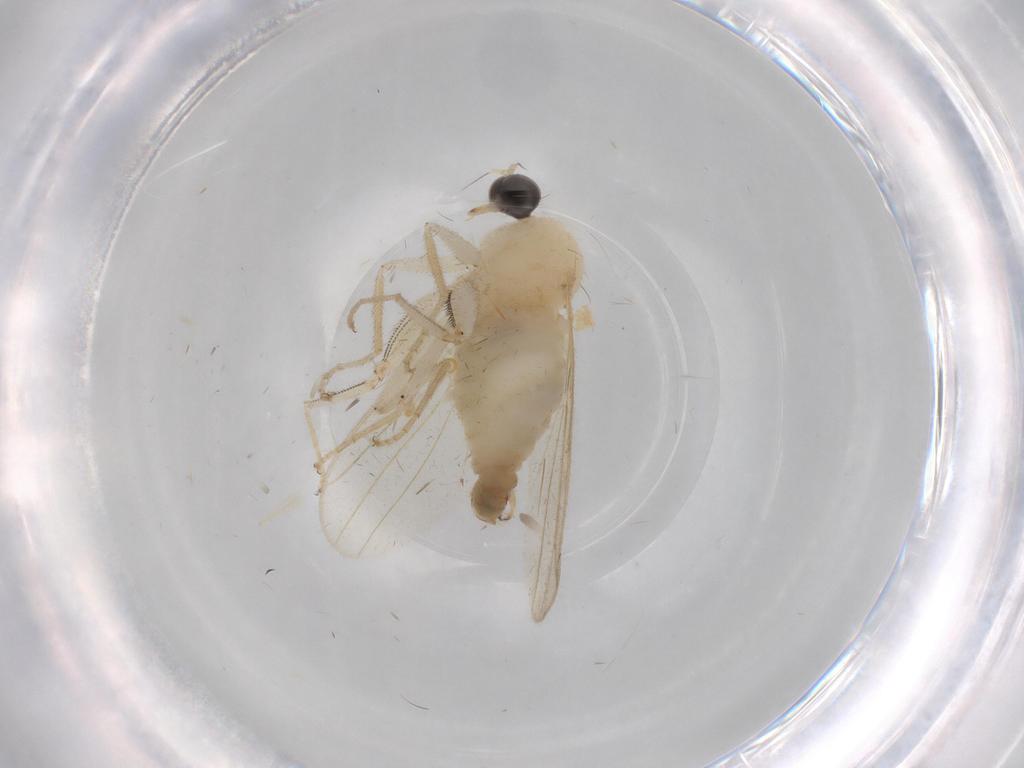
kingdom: Animalia
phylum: Arthropoda
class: Insecta
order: Diptera
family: Hybotidae
